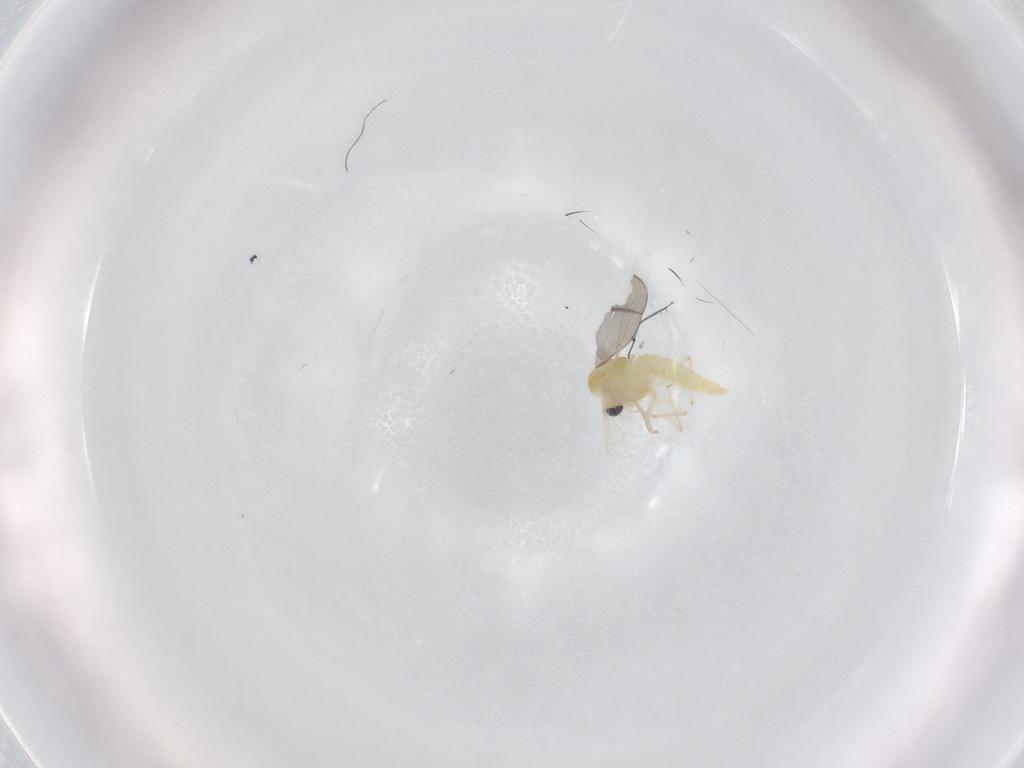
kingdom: Animalia
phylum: Arthropoda
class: Insecta
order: Diptera
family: Cecidomyiidae
